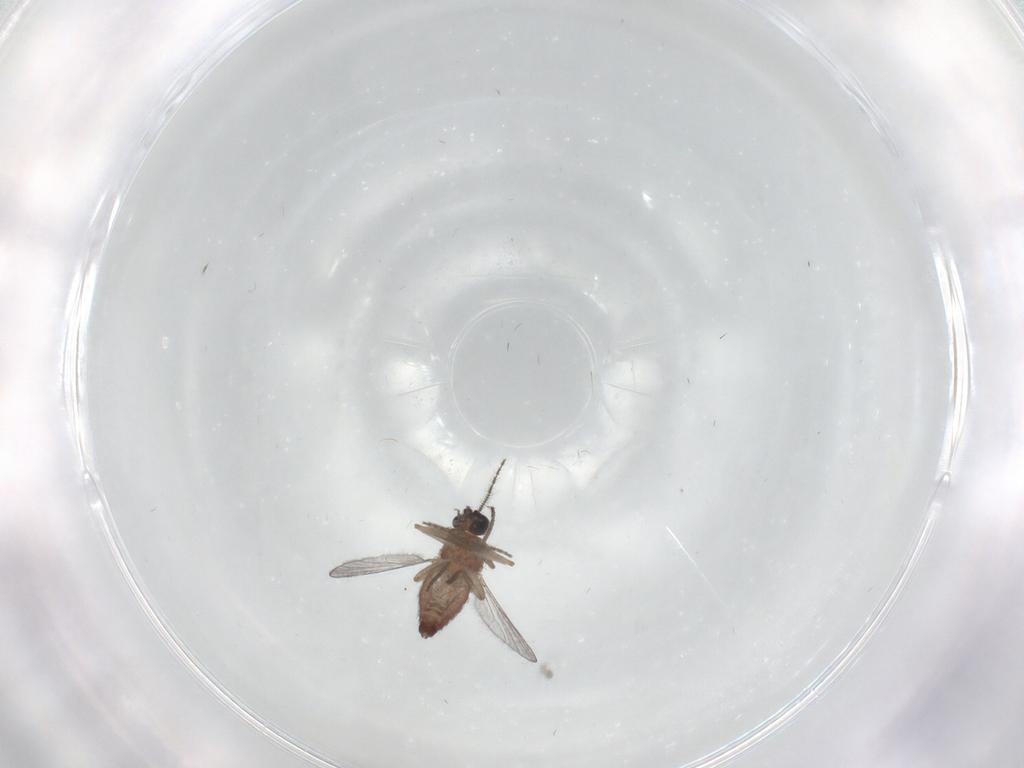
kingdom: Animalia
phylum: Arthropoda
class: Insecta
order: Diptera
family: Ceratopogonidae
